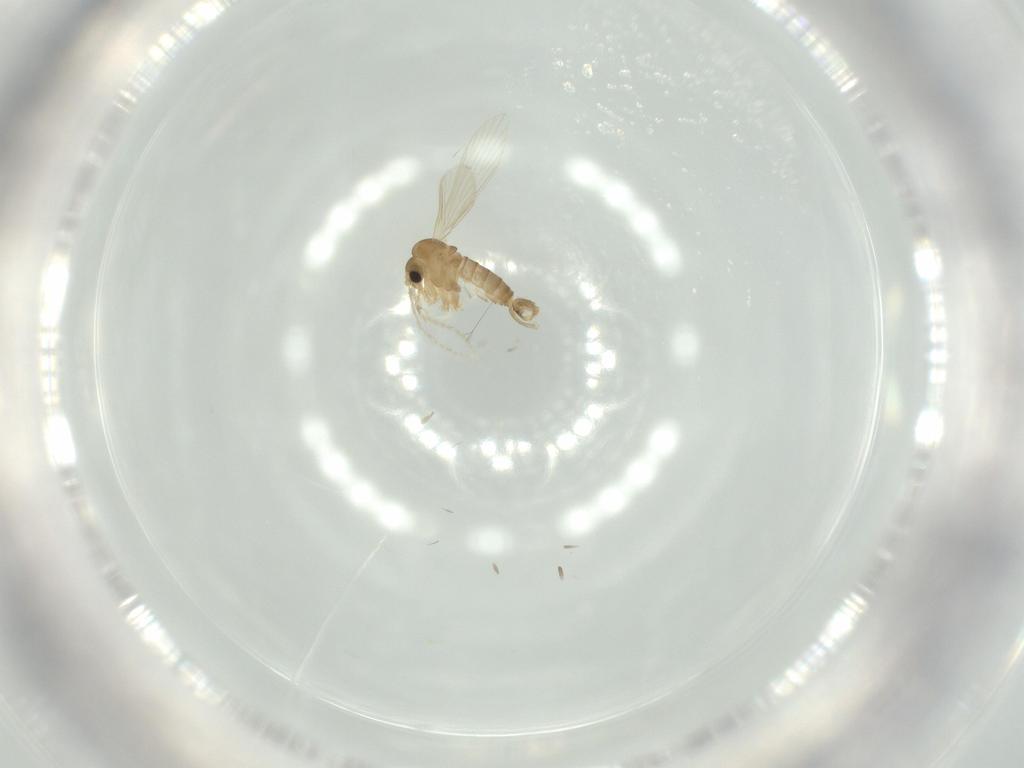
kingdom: Animalia
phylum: Arthropoda
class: Insecta
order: Diptera
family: Psychodidae
